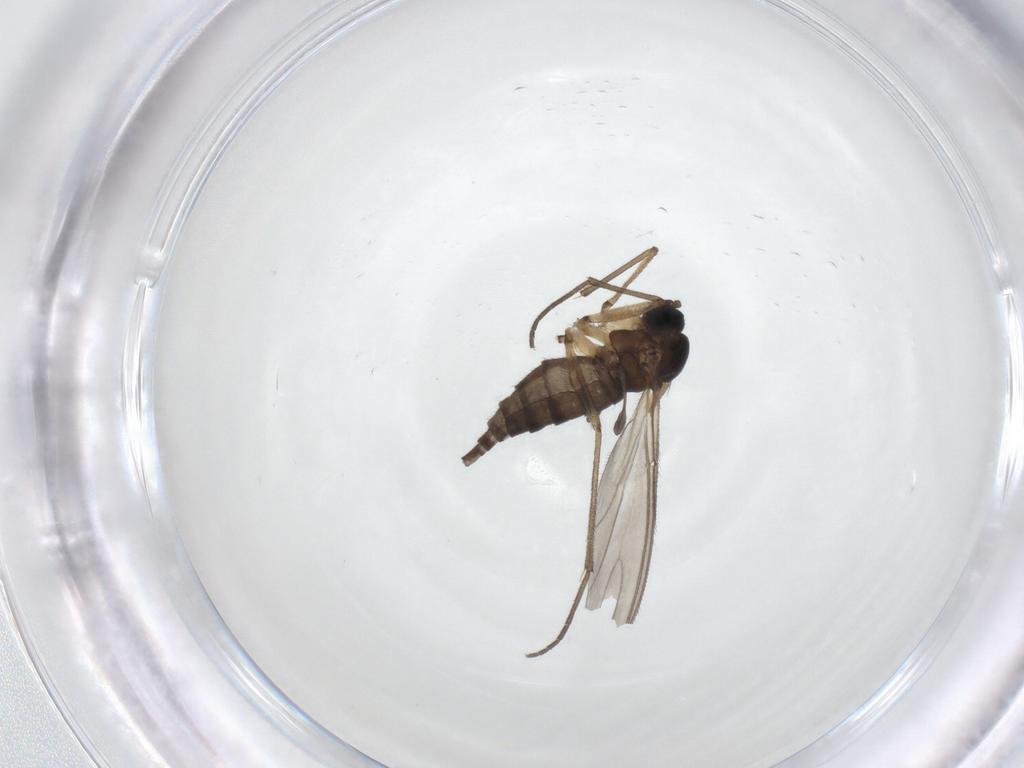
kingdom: Animalia
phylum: Arthropoda
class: Insecta
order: Diptera
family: Sciaridae
